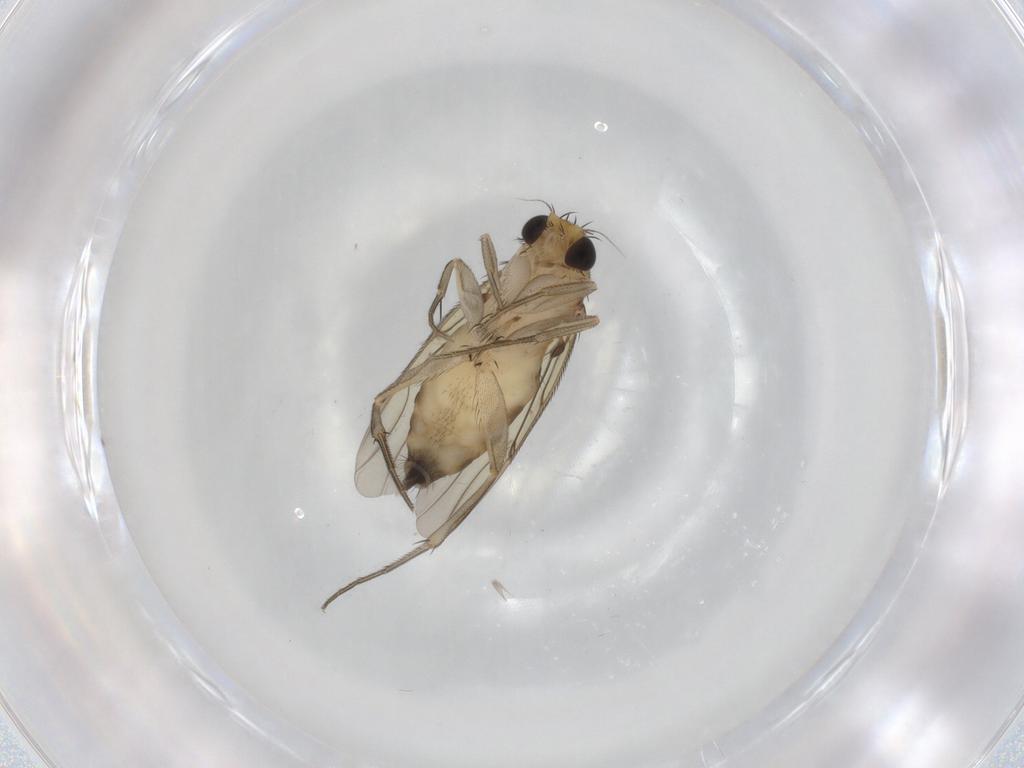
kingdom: Animalia
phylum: Arthropoda
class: Insecta
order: Diptera
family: Phoridae
